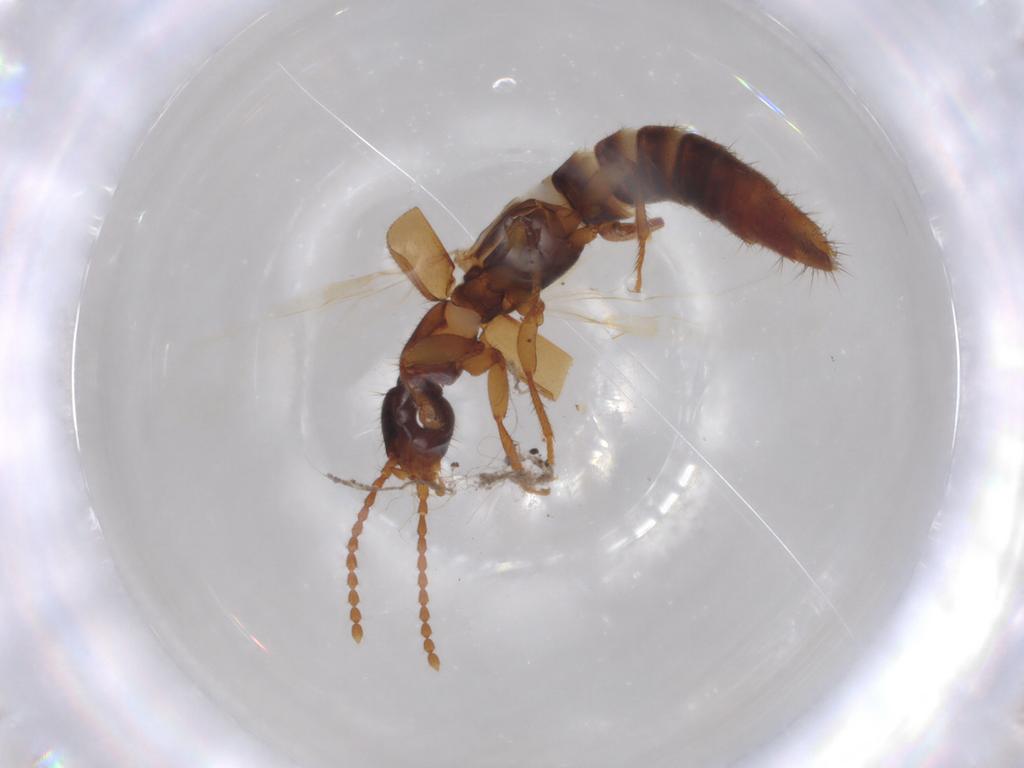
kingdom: Animalia
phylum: Arthropoda
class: Insecta
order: Coleoptera
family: Staphylinidae
